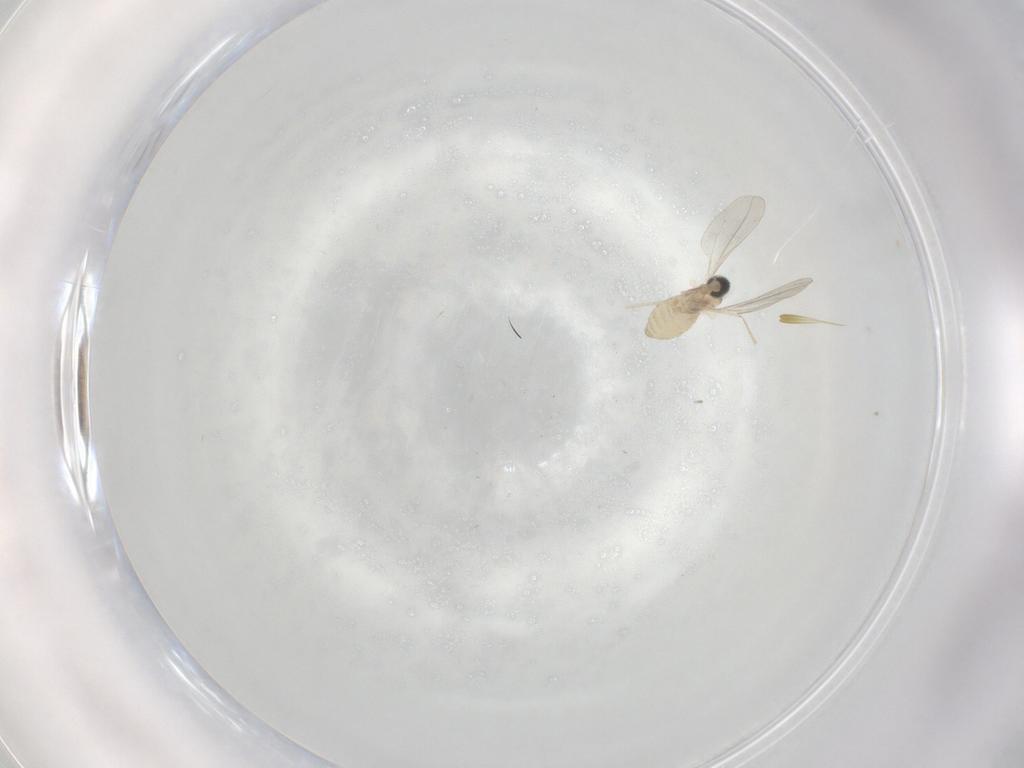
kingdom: Animalia
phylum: Arthropoda
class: Insecta
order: Diptera
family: Cecidomyiidae
